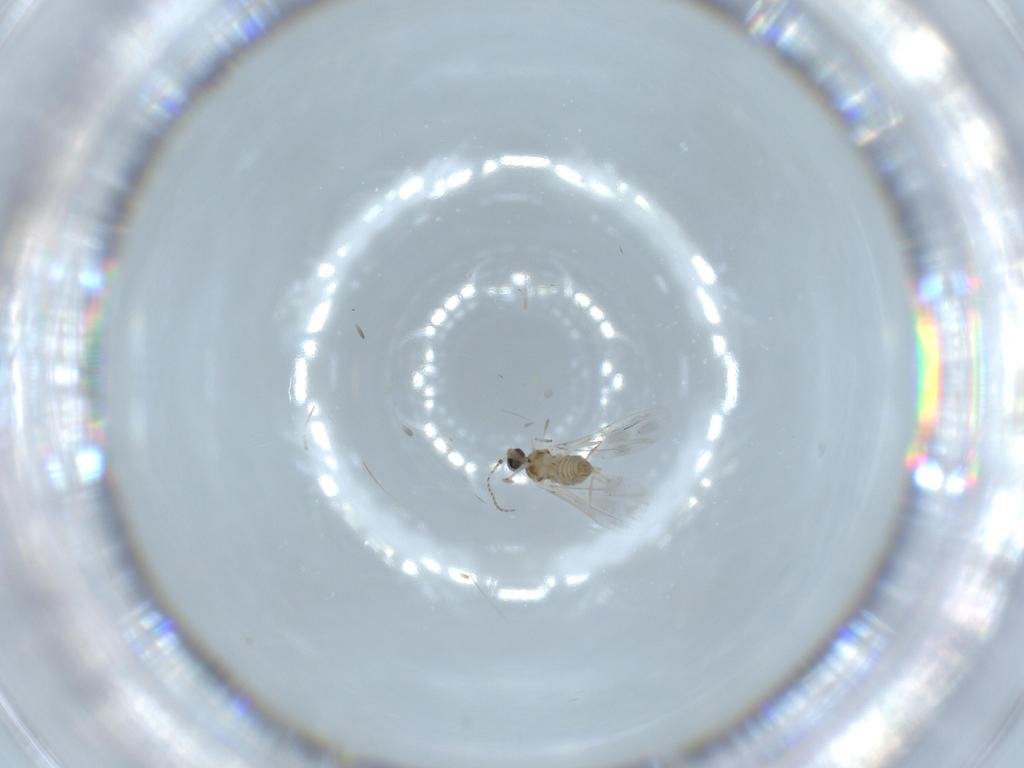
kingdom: Animalia
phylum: Arthropoda
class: Insecta
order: Diptera
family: Cecidomyiidae
